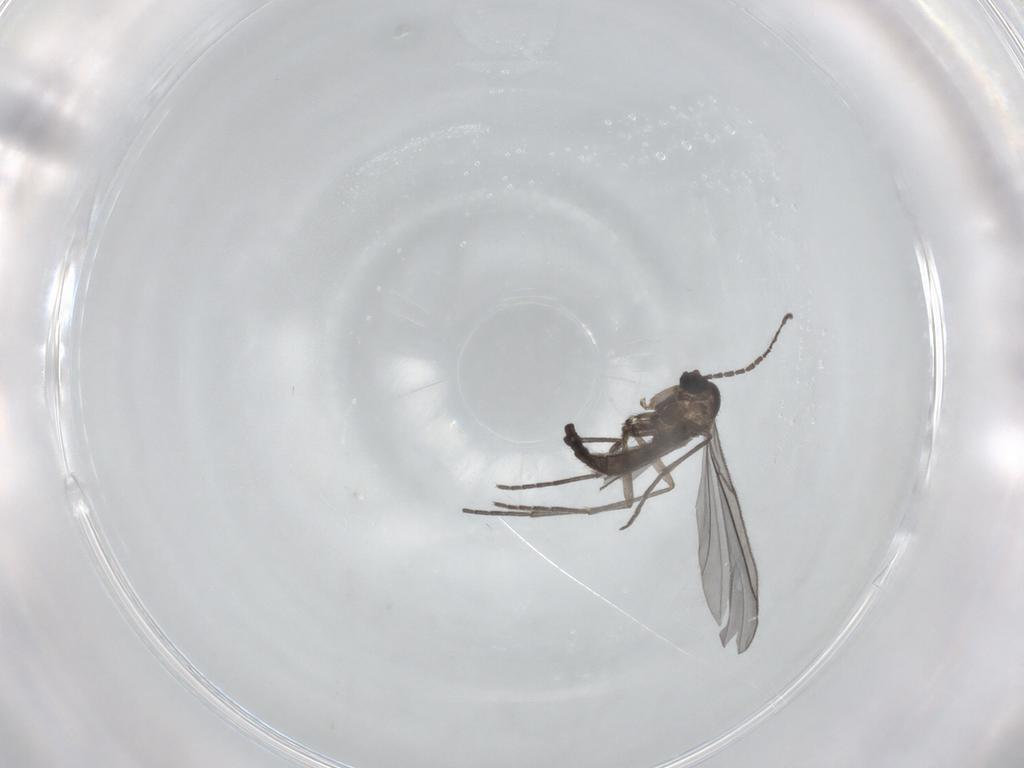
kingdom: Animalia
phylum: Arthropoda
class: Insecta
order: Diptera
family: Sciaridae
